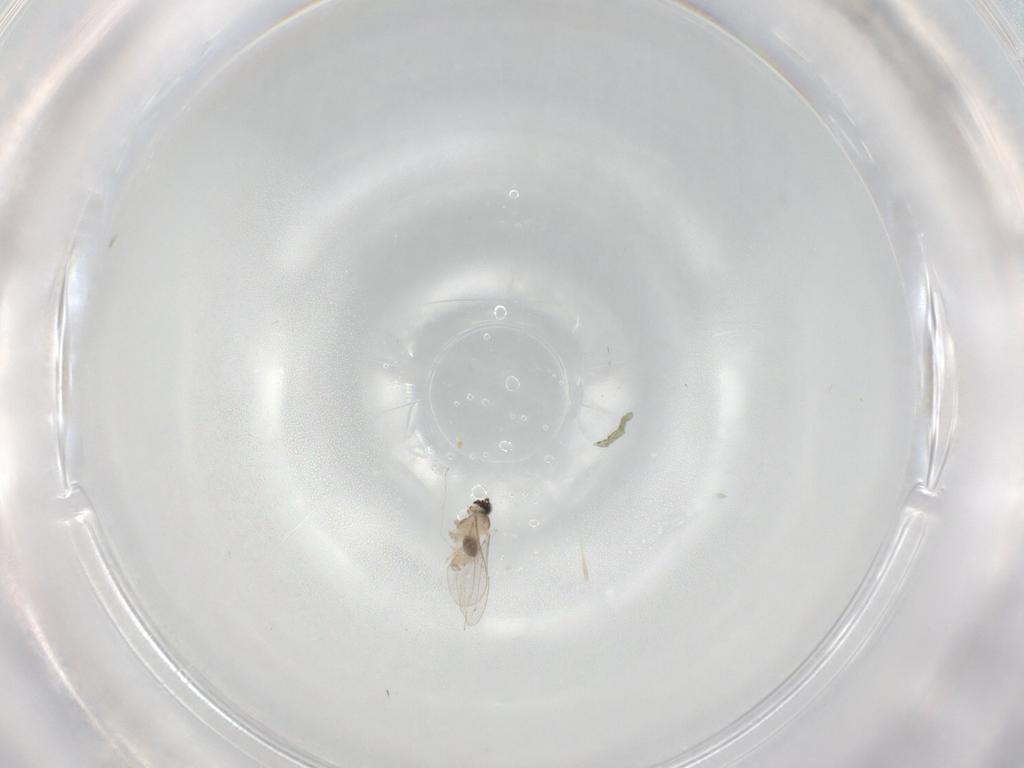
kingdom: Animalia
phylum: Arthropoda
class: Insecta
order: Diptera
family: Cecidomyiidae
